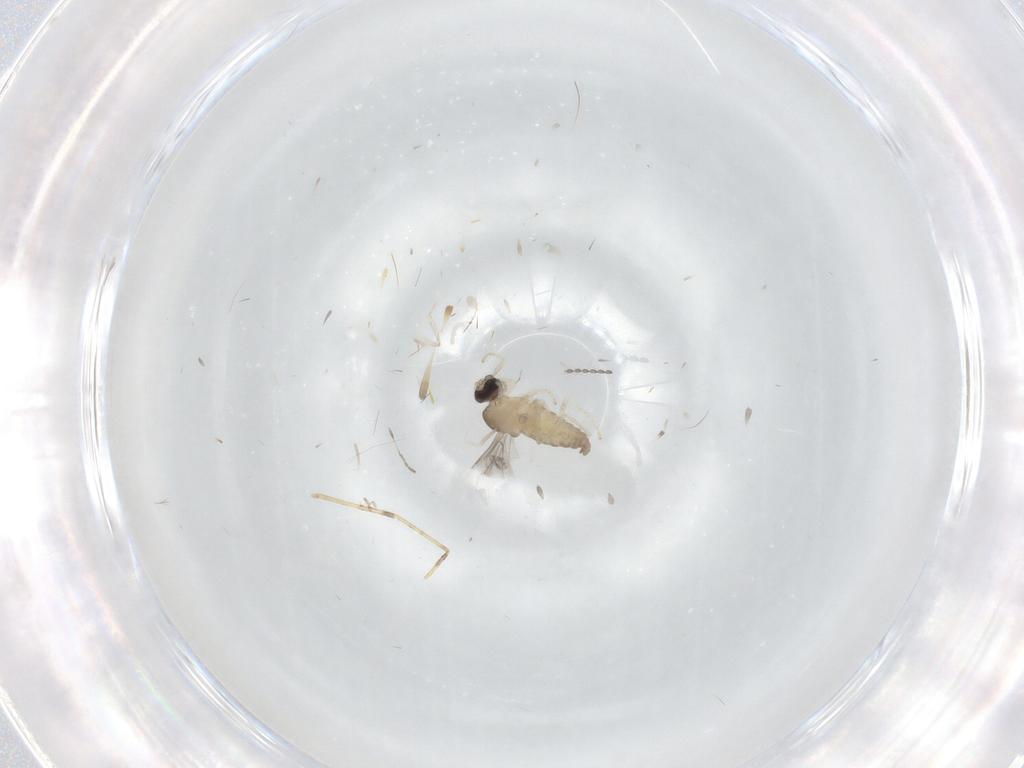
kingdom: Animalia
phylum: Arthropoda
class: Insecta
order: Diptera
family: Cecidomyiidae
